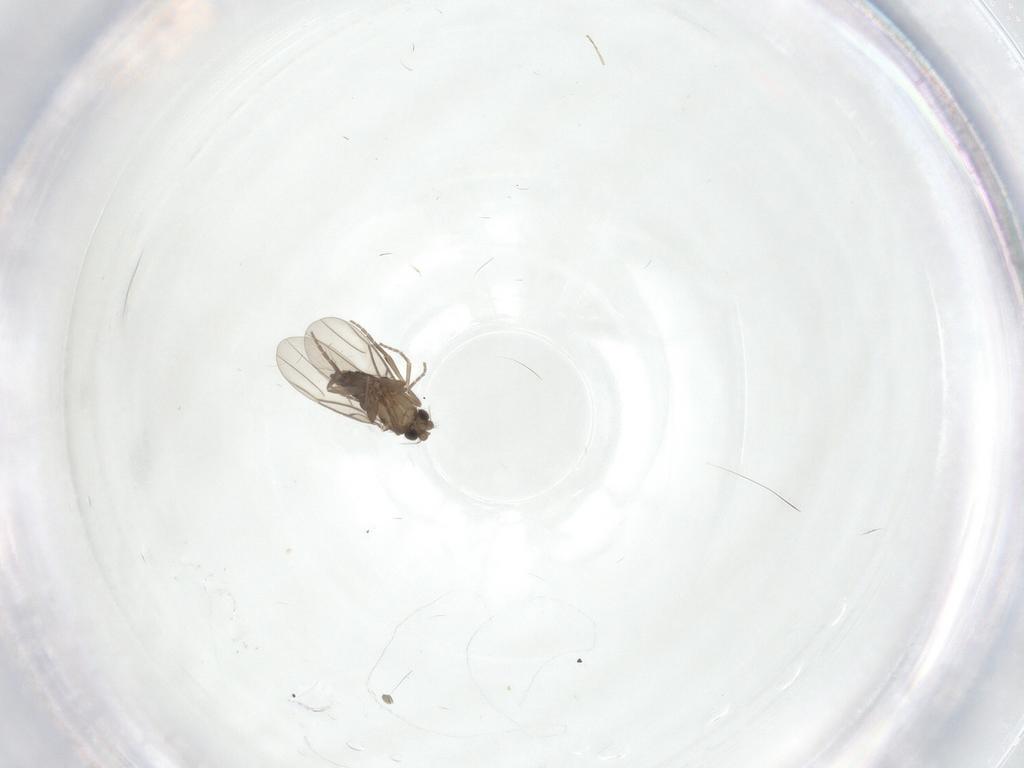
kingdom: Animalia
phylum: Arthropoda
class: Insecta
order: Diptera
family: Phoridae
